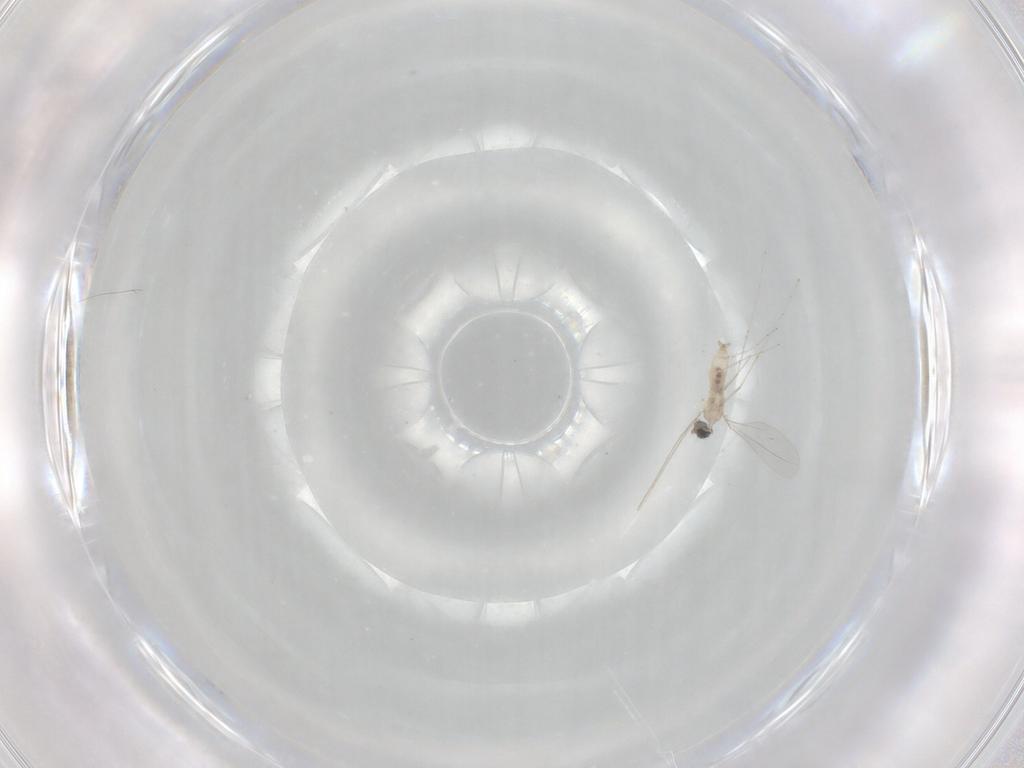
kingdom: Animalia
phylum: Arthropoda
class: Insecta
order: Diptera
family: Cecidomyiidae
